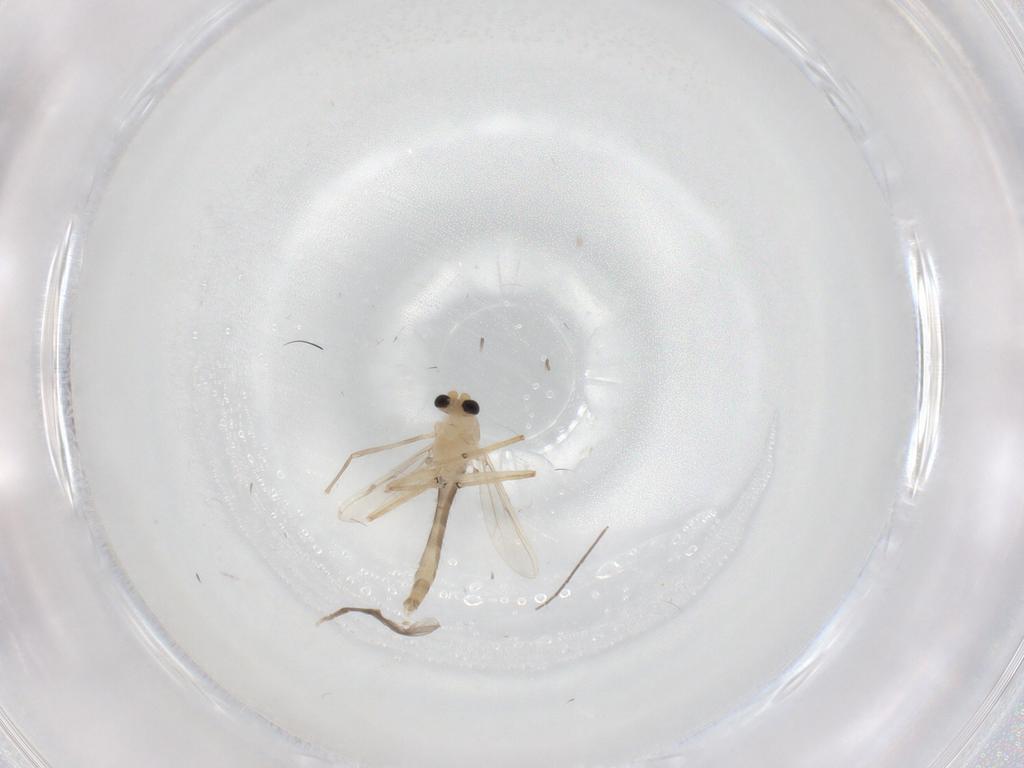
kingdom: Animalia
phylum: Arthropoda
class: Insecta
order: Diptera
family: Chironomidae
